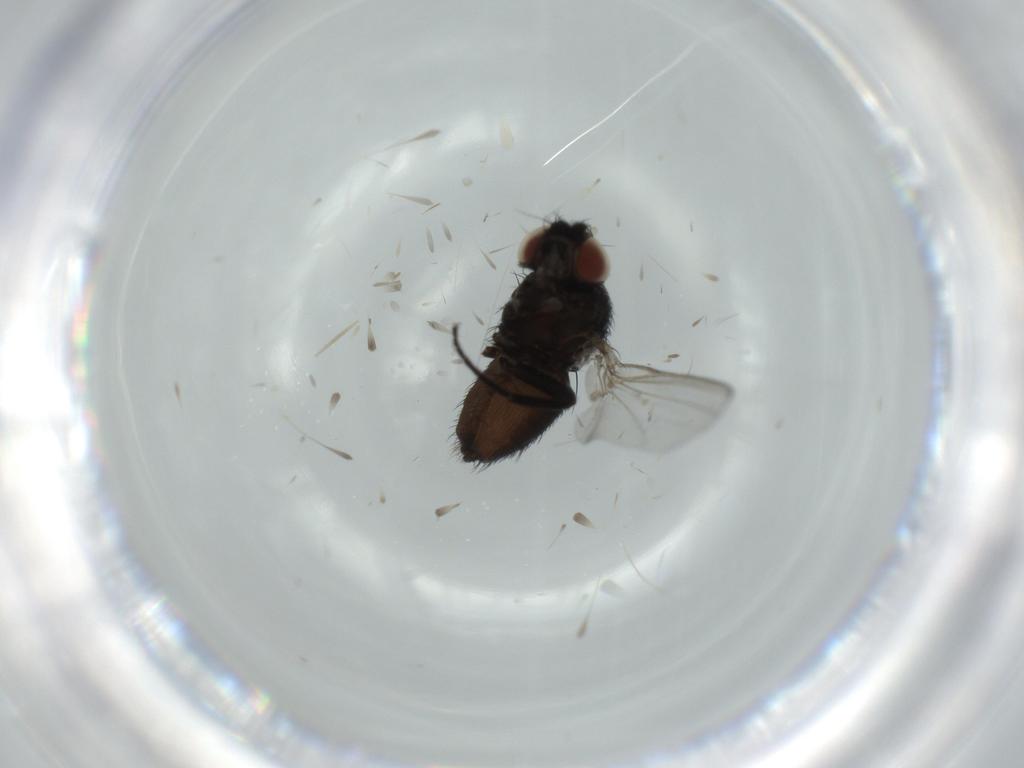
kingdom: Animalia
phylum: Arthropoda
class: Insecta
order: Diptera
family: Milichiidae
